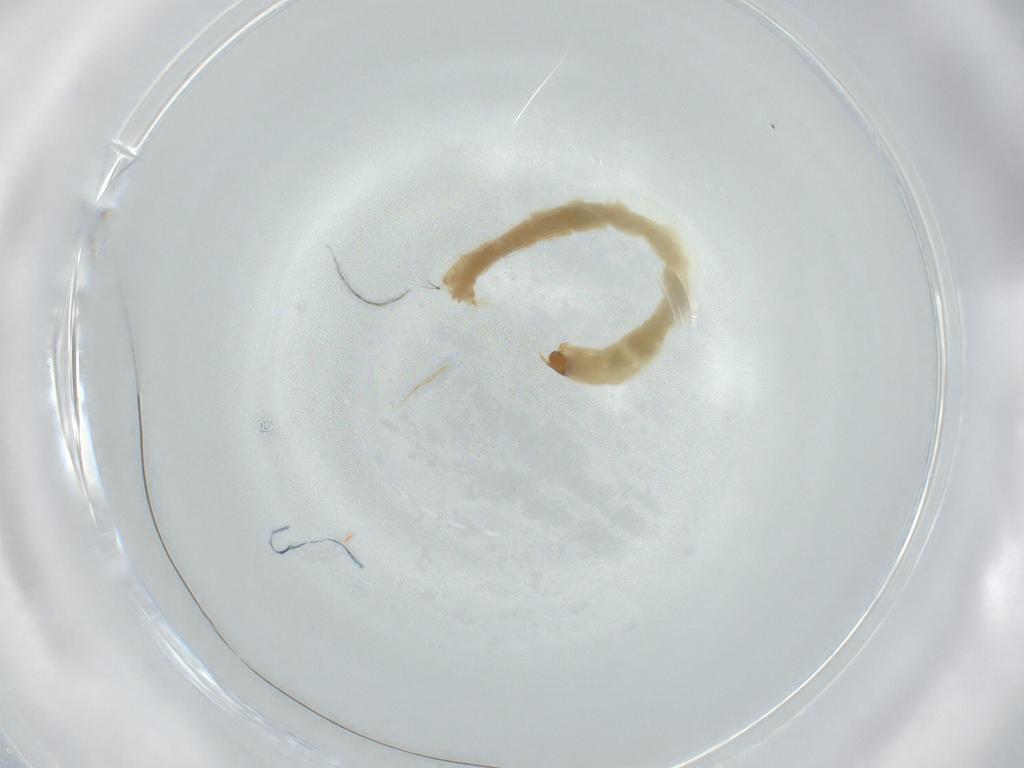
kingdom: Animalia
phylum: Arthropoda
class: Insecta
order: Diptera
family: Chironomidae
